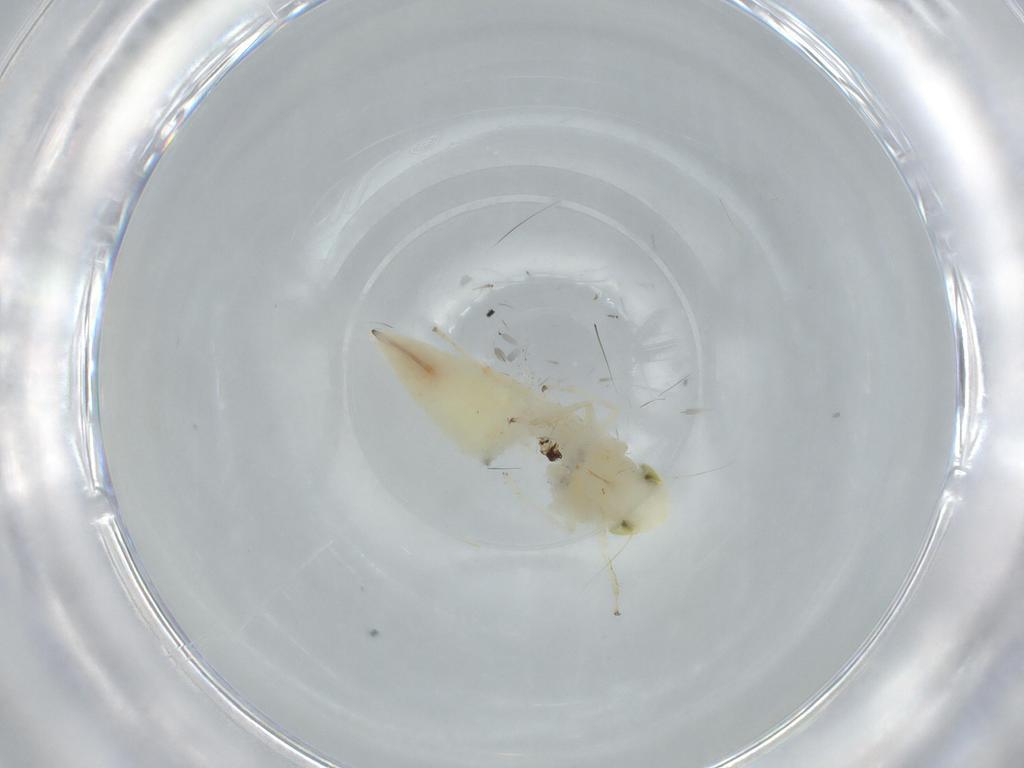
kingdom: Animalia
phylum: Arthropoda
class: Insecta
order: Hemiptera
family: Cicadellidae
